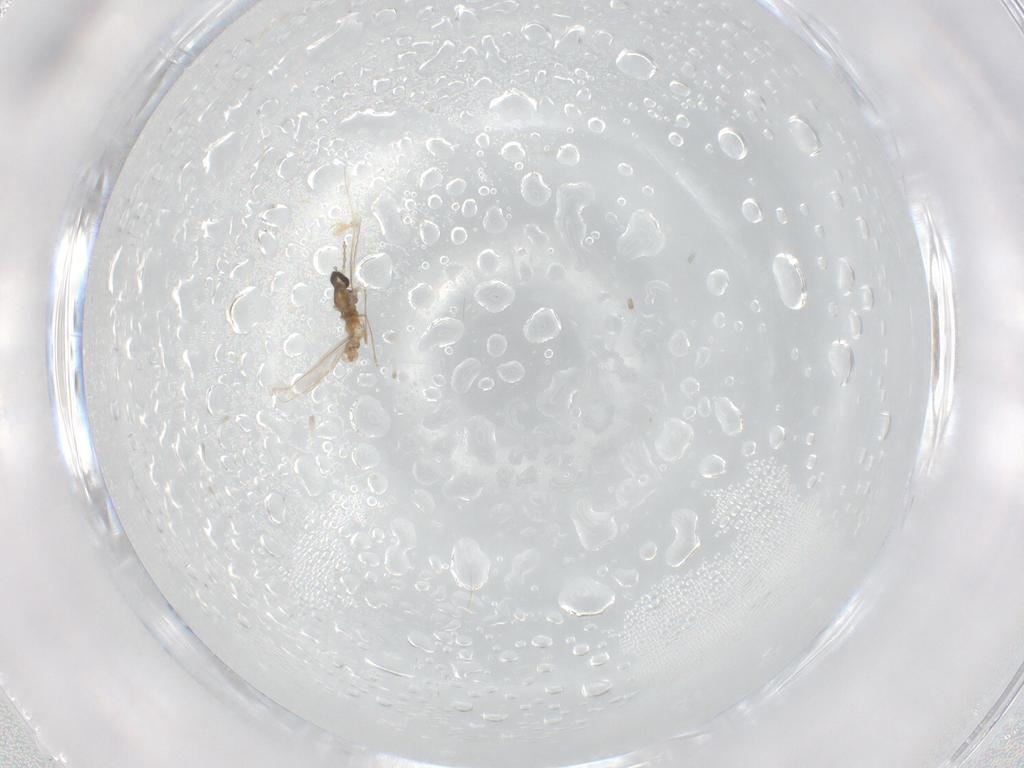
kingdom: Animalia
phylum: Arthropoda
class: Insecta
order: Diptera
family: Cecidomyiidae
